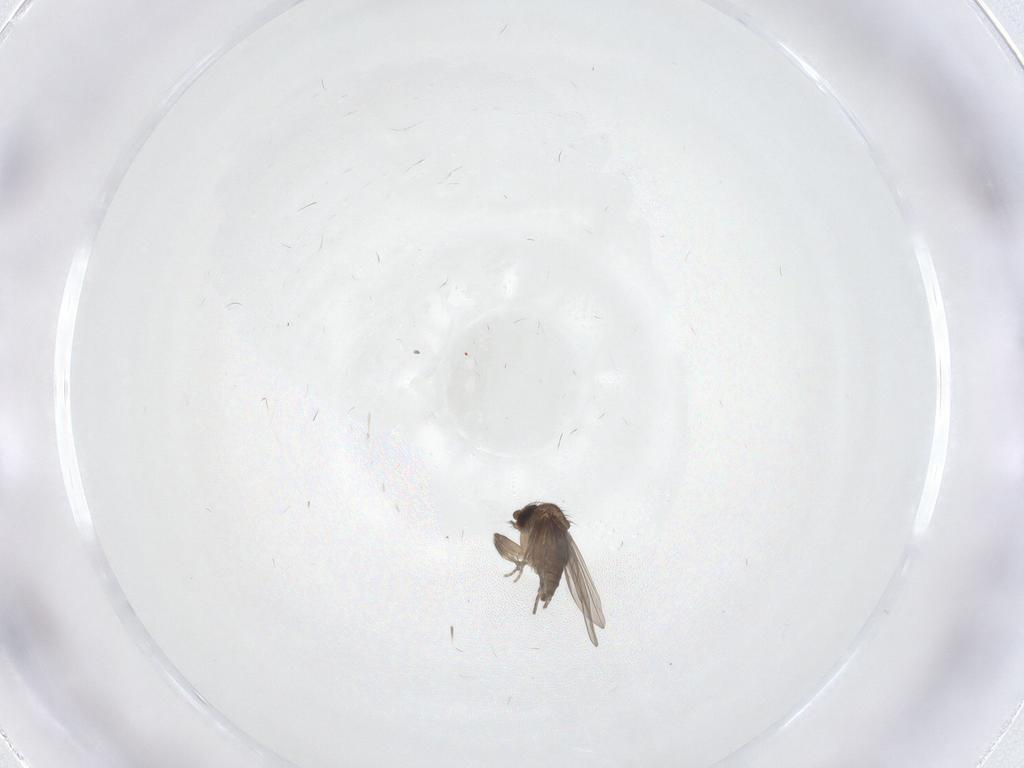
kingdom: Animalia
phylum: Arthropoda
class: Insecta
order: Diptera
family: Phoridae
